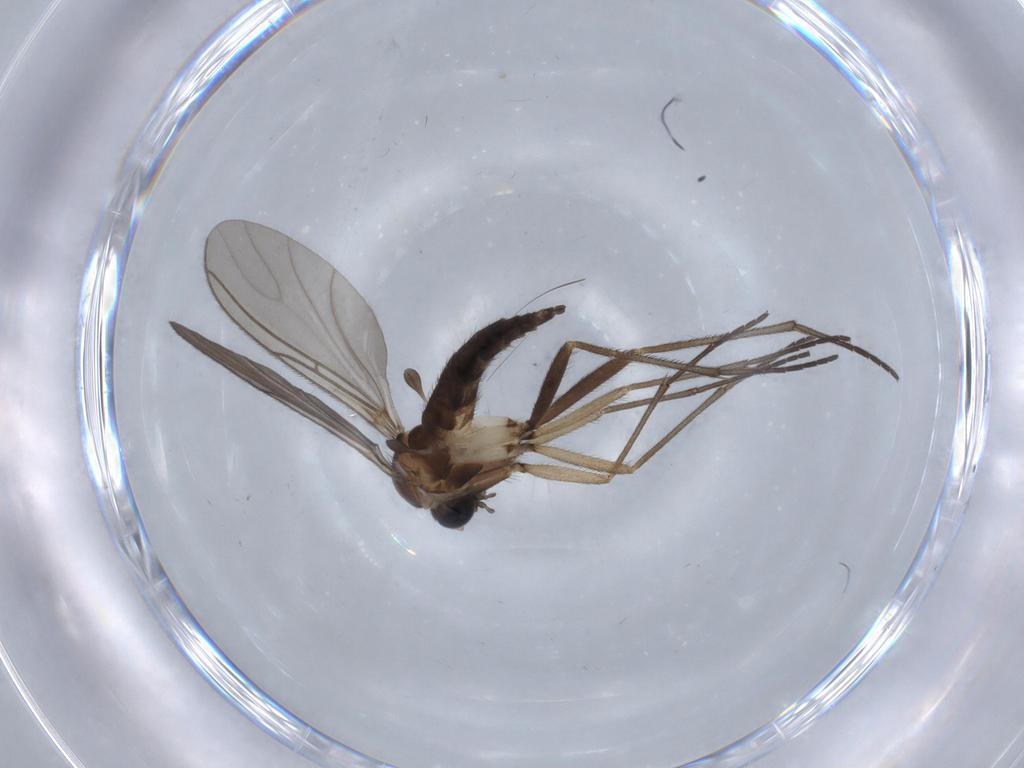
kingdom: Animalia
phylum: Arthropoda
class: Insecta
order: Diptera
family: Sciaridae
